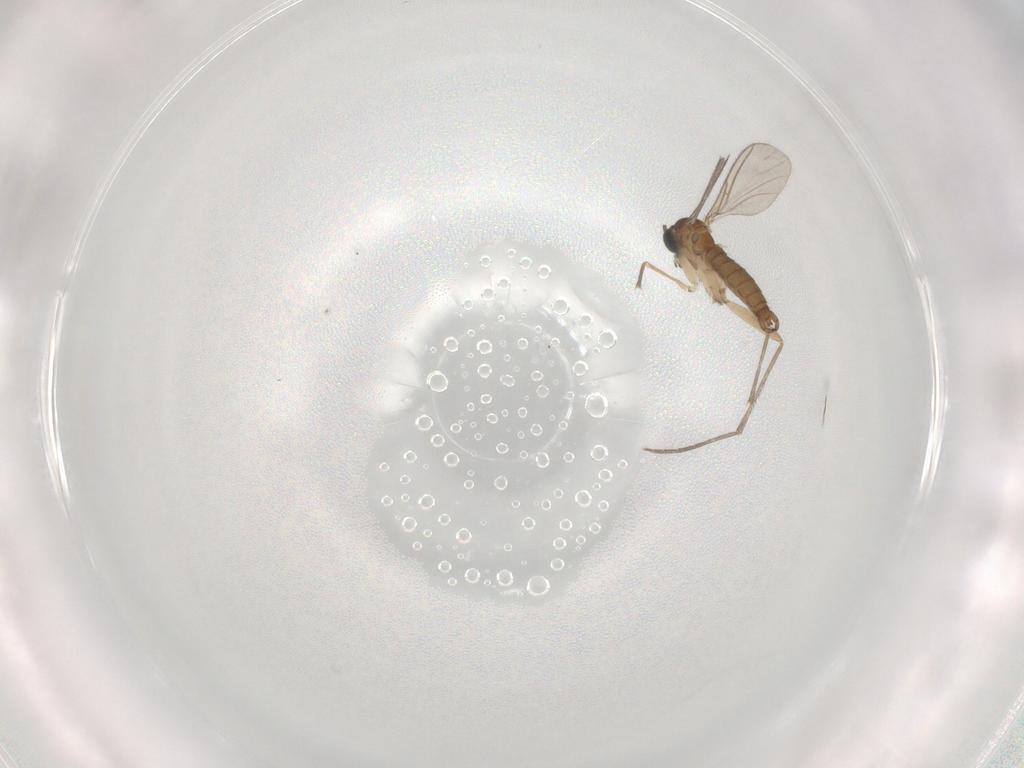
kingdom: Animalia
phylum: Arthropoda
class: Insecta
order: Diptera
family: Sciaridae
